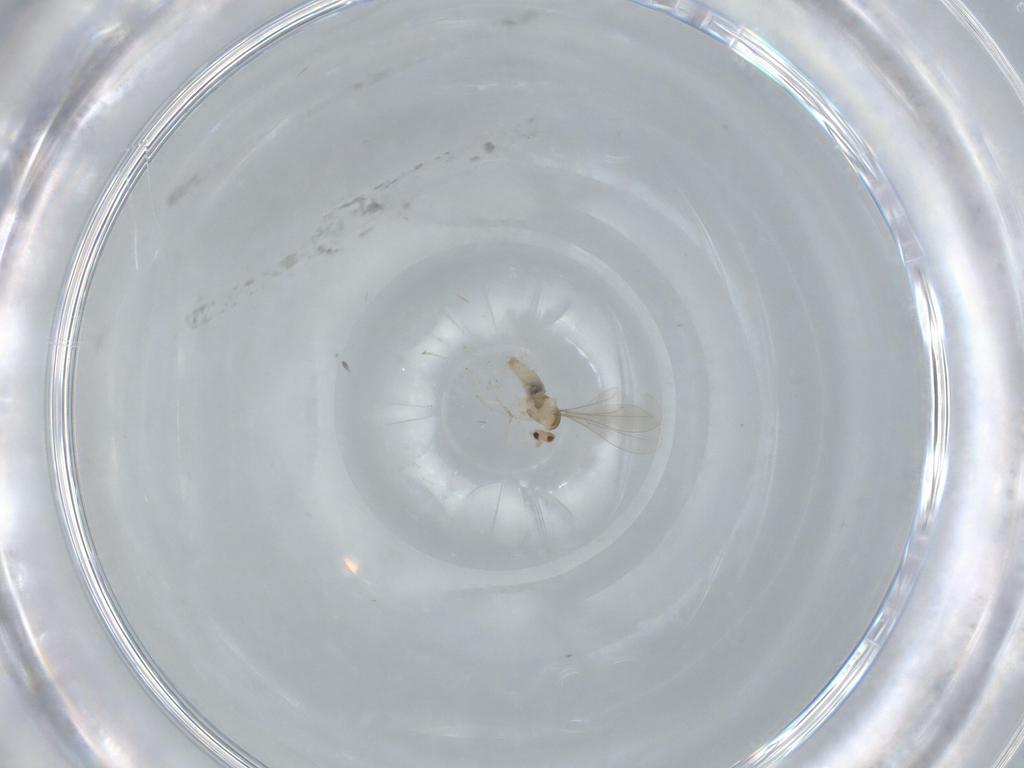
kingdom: Animalia
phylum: Arthropoda
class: Insecta
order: Diptera
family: Cecidomyiidae
